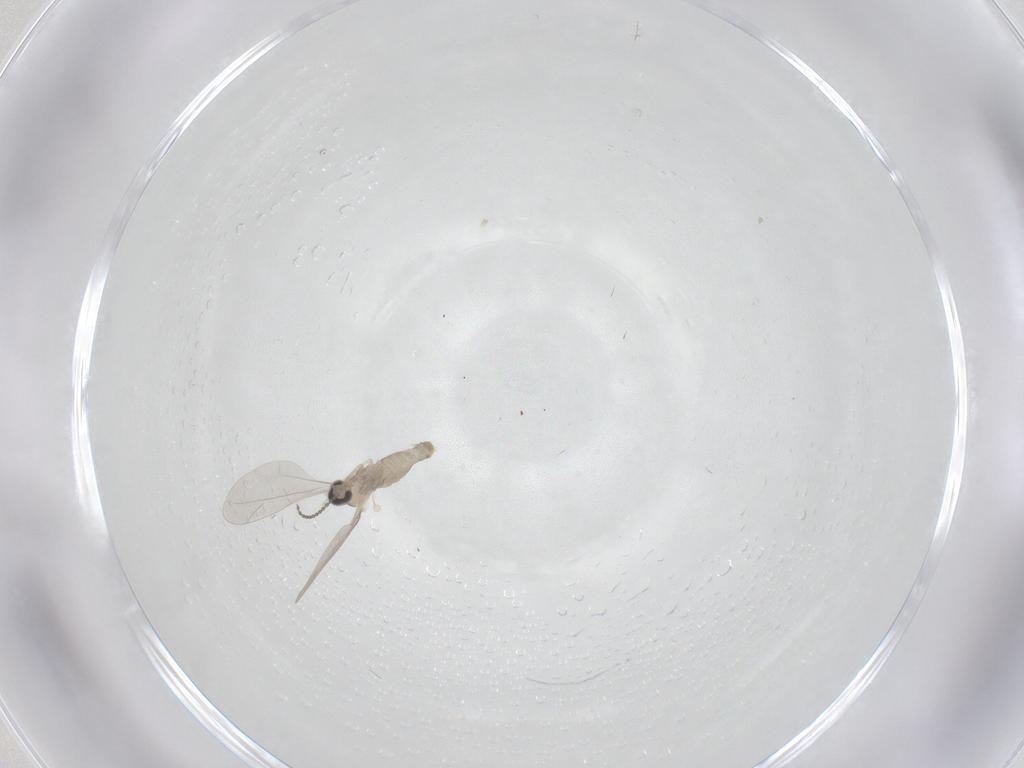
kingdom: Animalia
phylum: Arthropoda
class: Insecta
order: Diptera
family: Cecidomyiidae
